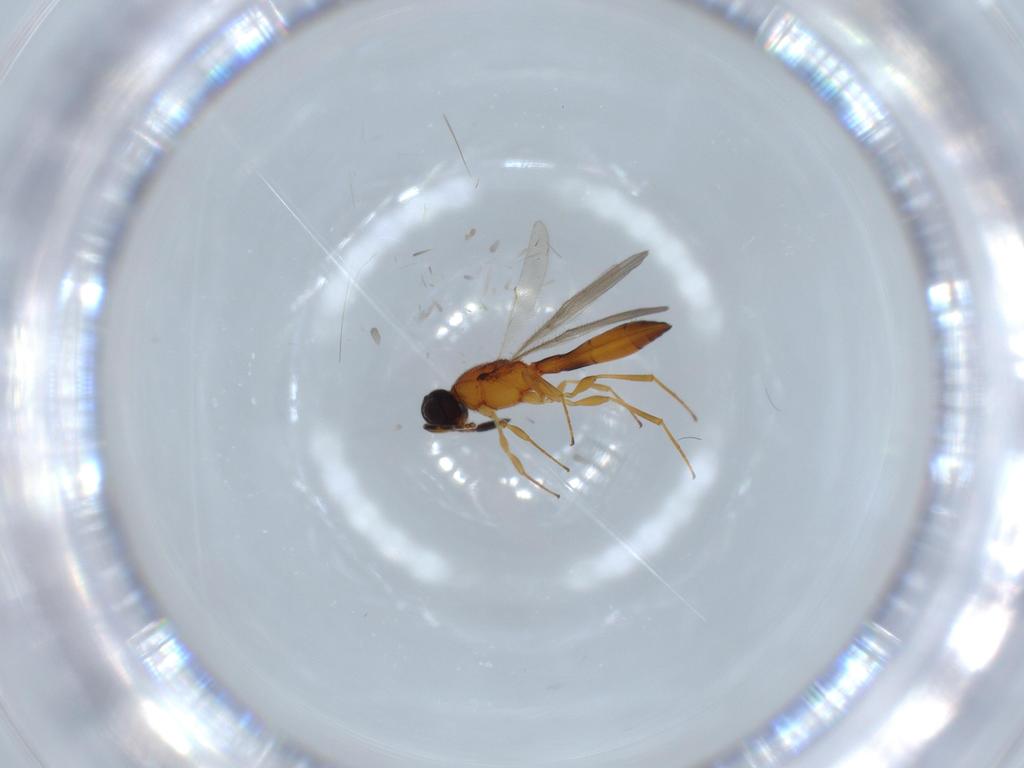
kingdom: Animalia
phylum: Arthropoda
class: Insecta
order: Hymenoptera
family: Scelionidae
